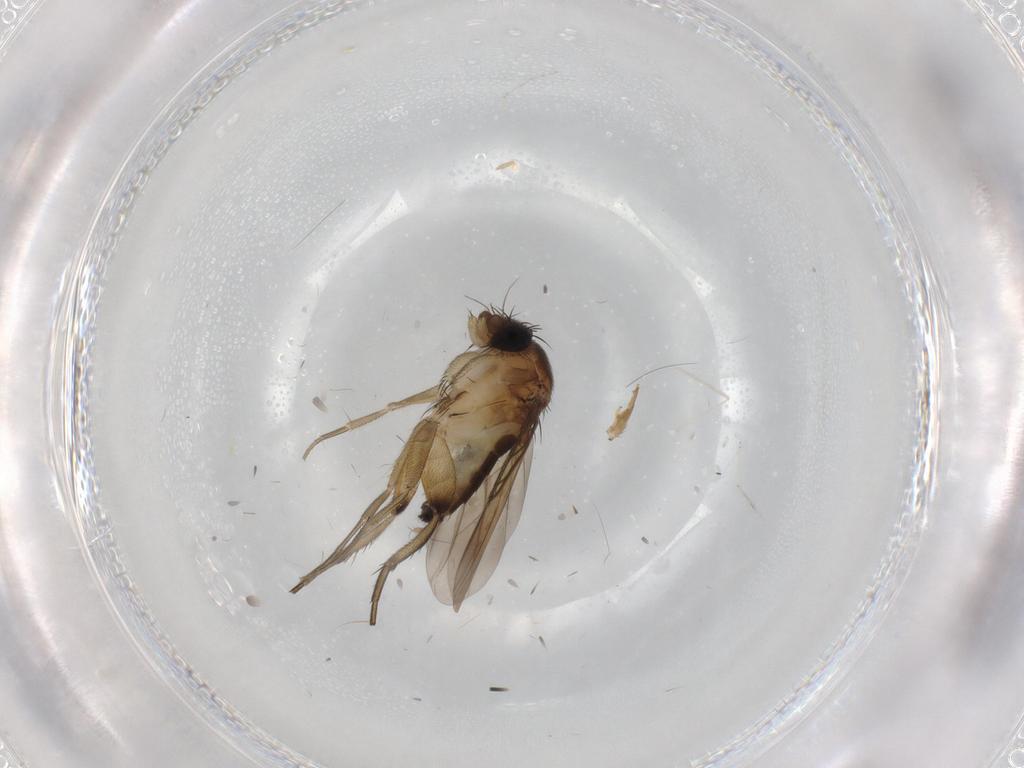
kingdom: Animalia
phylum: Arthropoda
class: Insecta
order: Diptera
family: Phoridae
